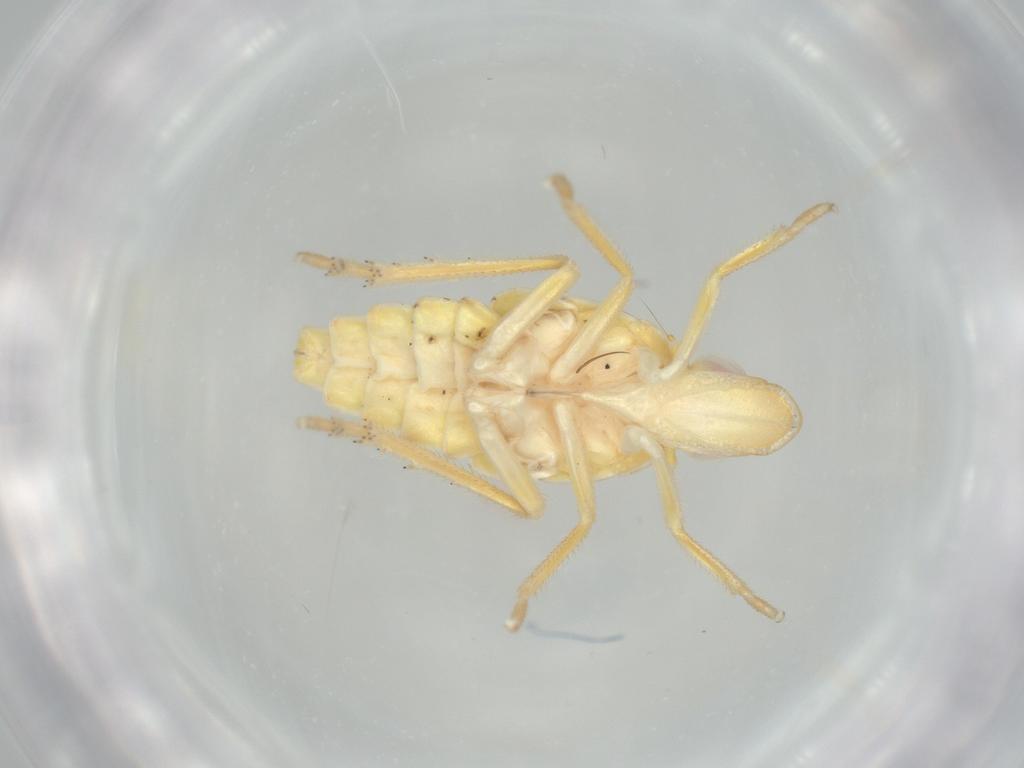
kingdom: Animalia
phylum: Arthropoda
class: Insecta
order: Hemiptera
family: Tropiduchidae
